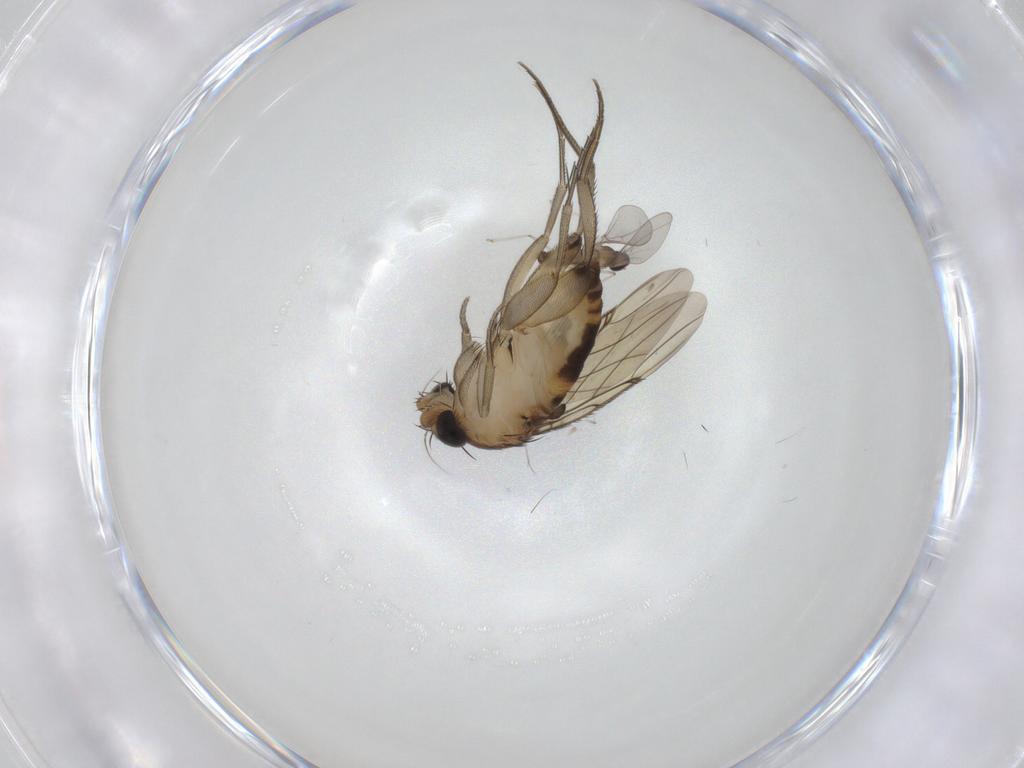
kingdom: Animalia
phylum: Arthropoda
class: Insecta
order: Diptera
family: Cecidomyiidae
